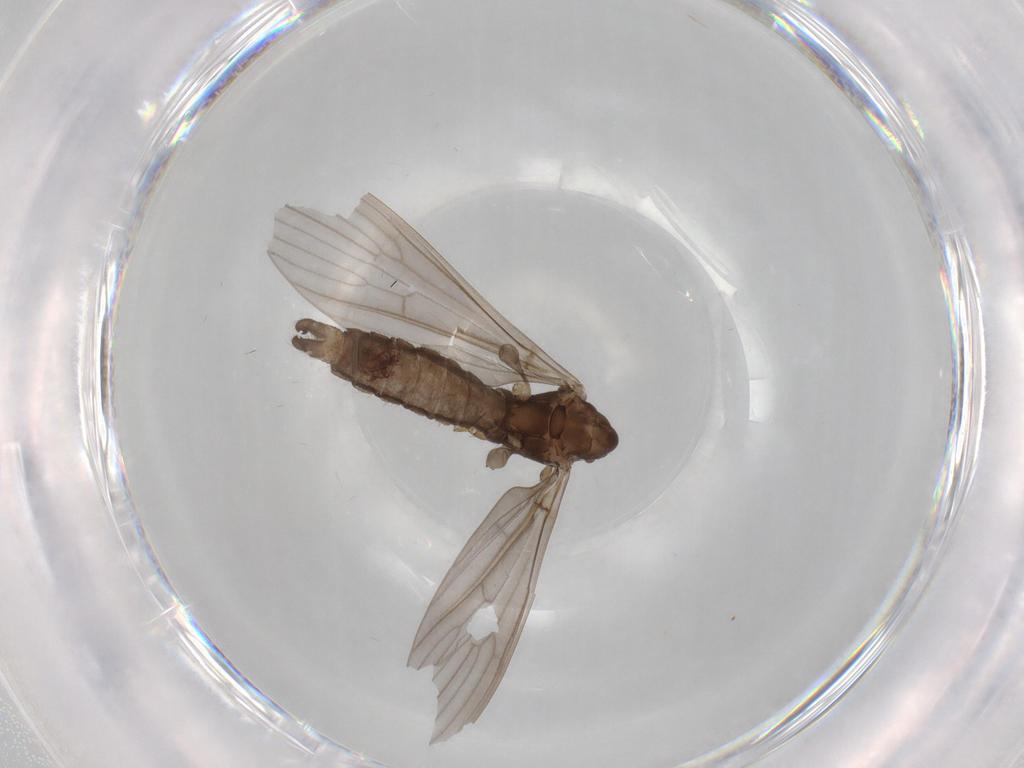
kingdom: Animalia
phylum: Arthropoda
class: Insecta
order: Diptera
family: Limoniidae
